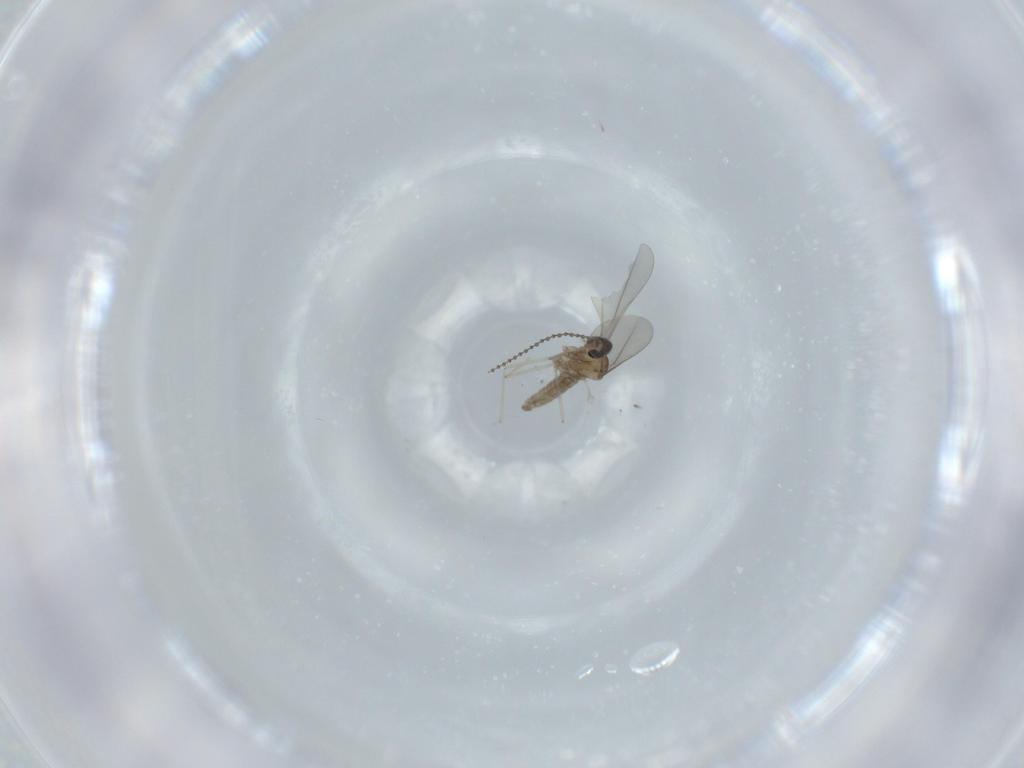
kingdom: Animalia
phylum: Arthropoda
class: Insecta
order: Diptera
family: Cecidomyiidae
